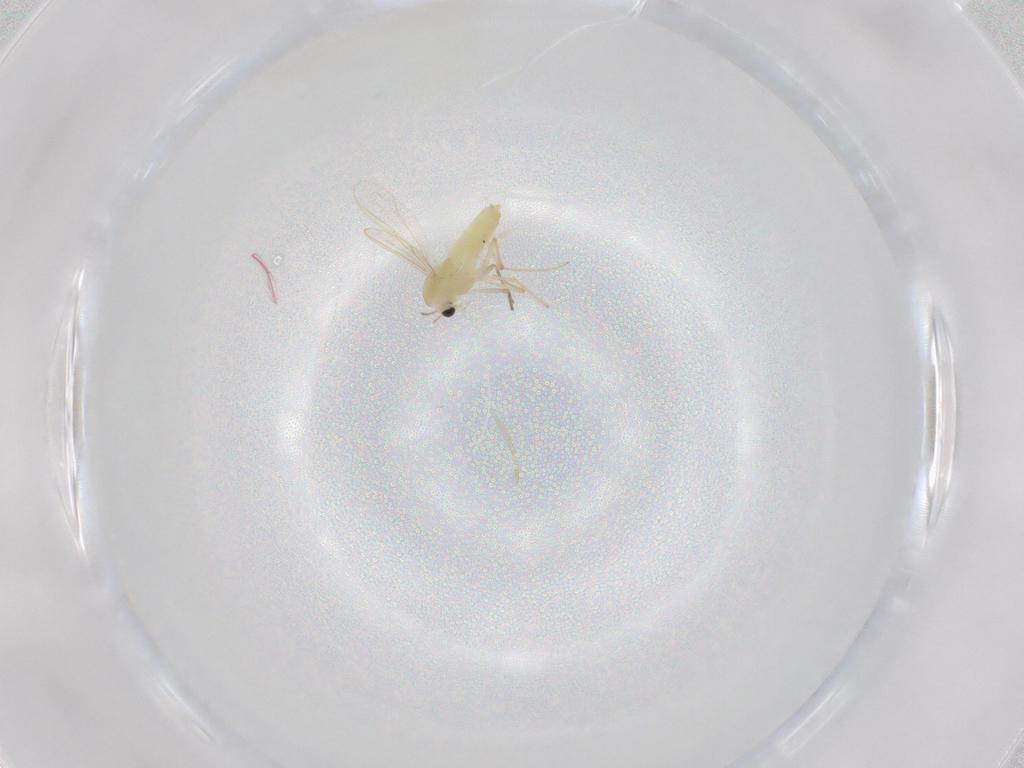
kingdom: Animalia
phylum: Arthropoda
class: Insecta
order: Diptera
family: Chironomidae
